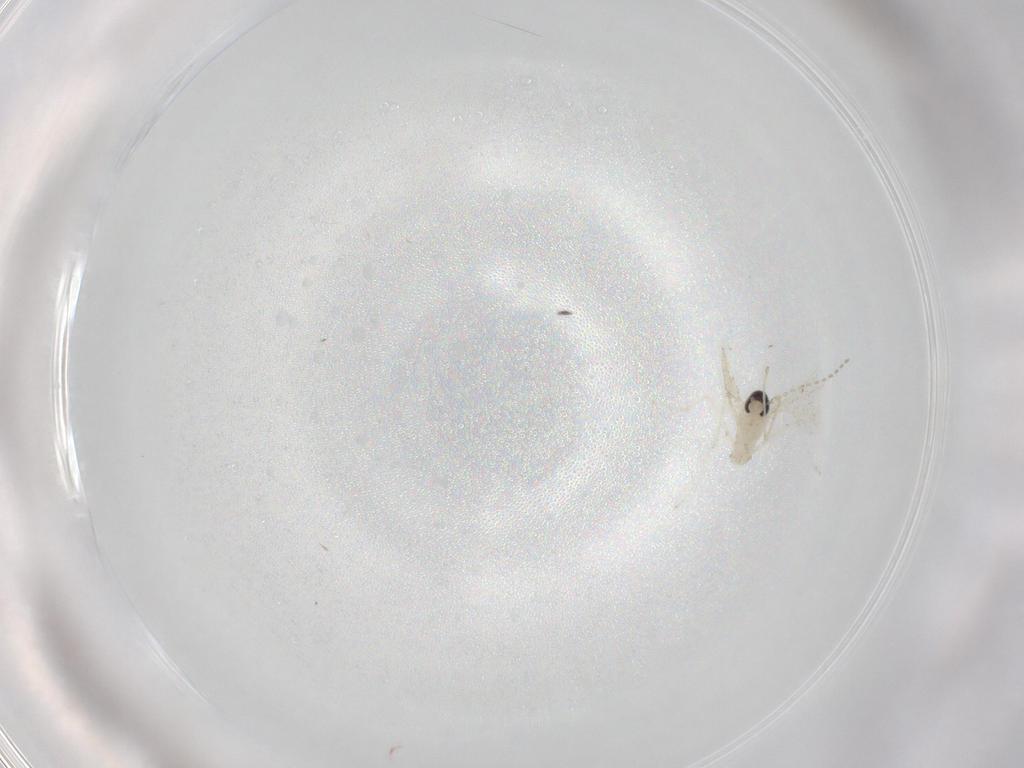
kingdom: Animalia
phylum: Arthropoda
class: Insecta
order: Diptera
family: Cecidomyiidae
